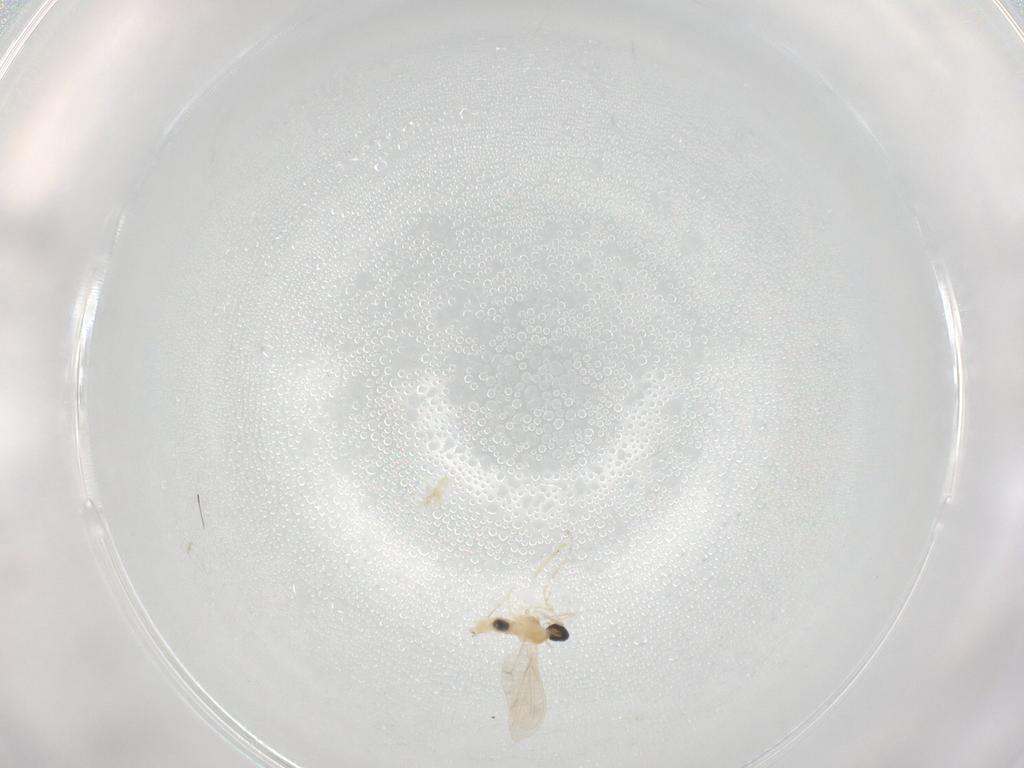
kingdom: Animalia
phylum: Arthropoda
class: Insecta
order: Diptera
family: Cecidomyiidae
